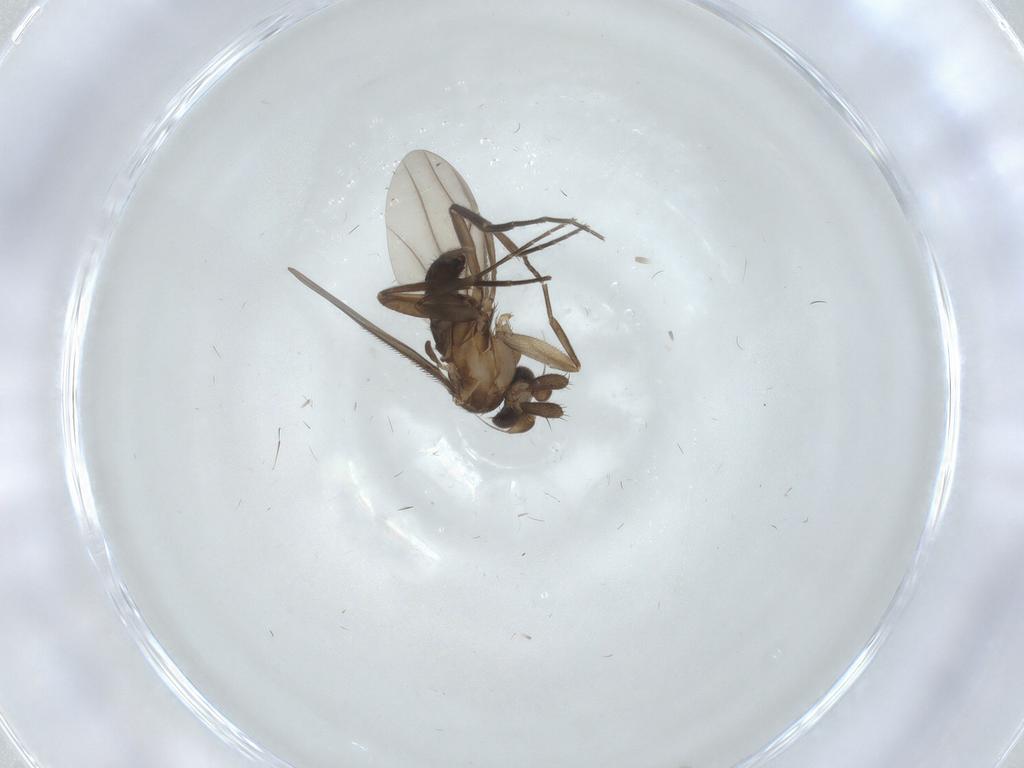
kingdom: Animalia
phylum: Arthropoda
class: Insecta
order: Diptera
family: Phoridae
